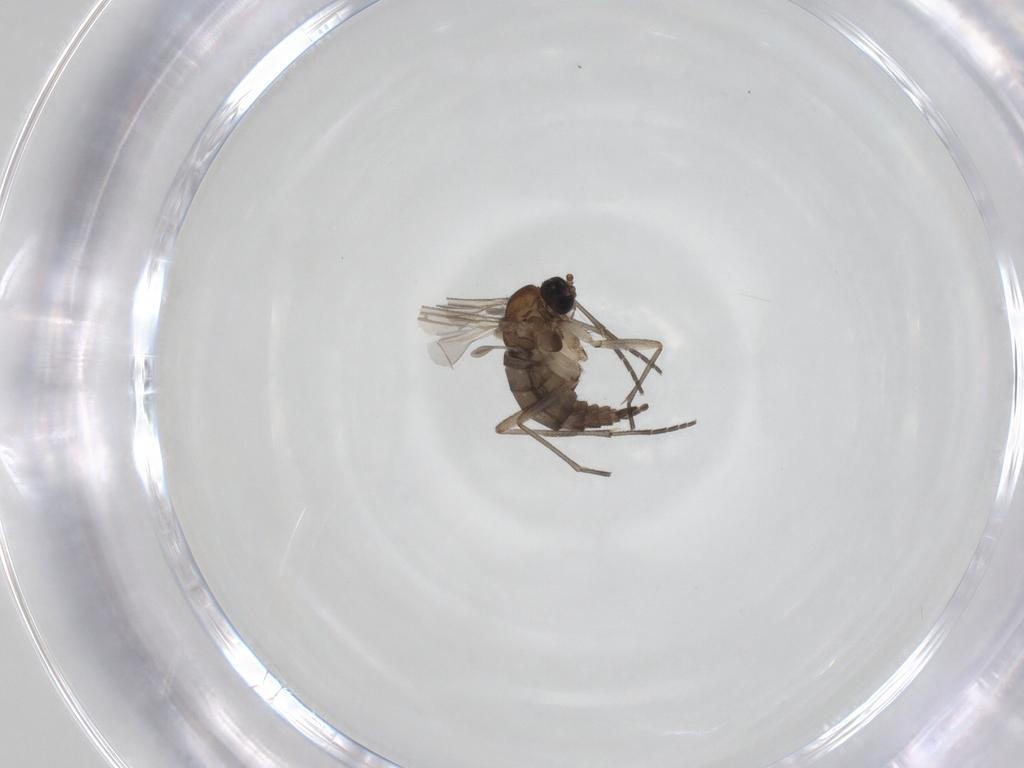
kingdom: Animalia
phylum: Arthropoda
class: Insecta
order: Diptera
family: Sciaridae
